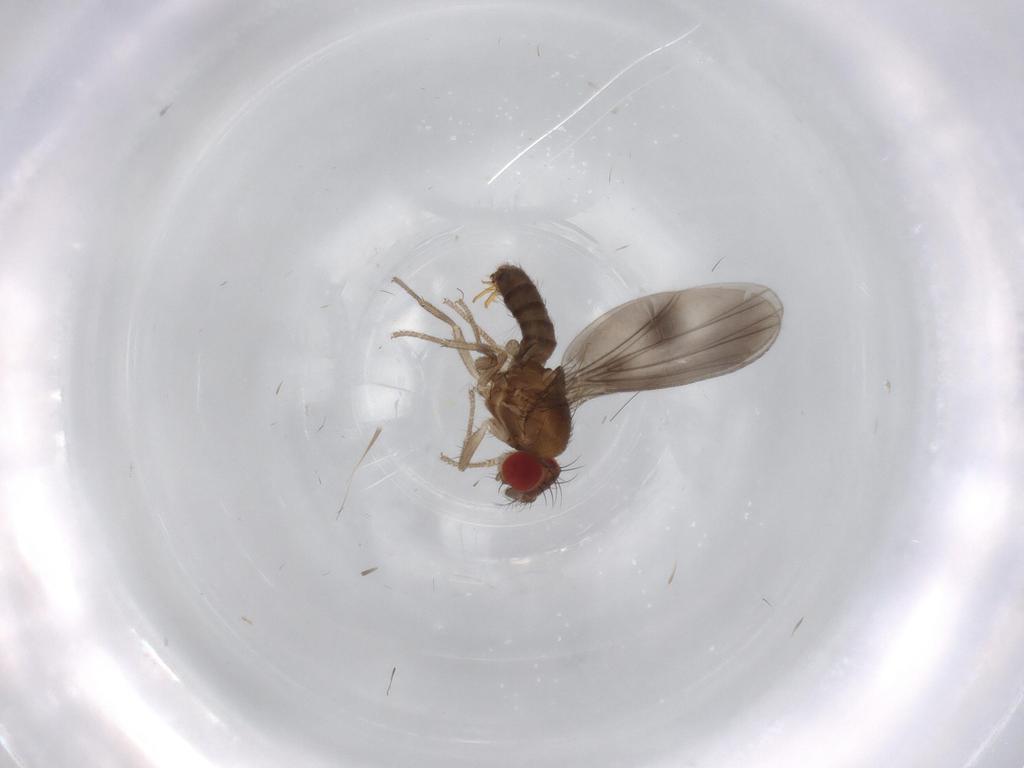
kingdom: Animalia
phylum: Arthropoda
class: Insecta
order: Diptera
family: Drosophilidae
